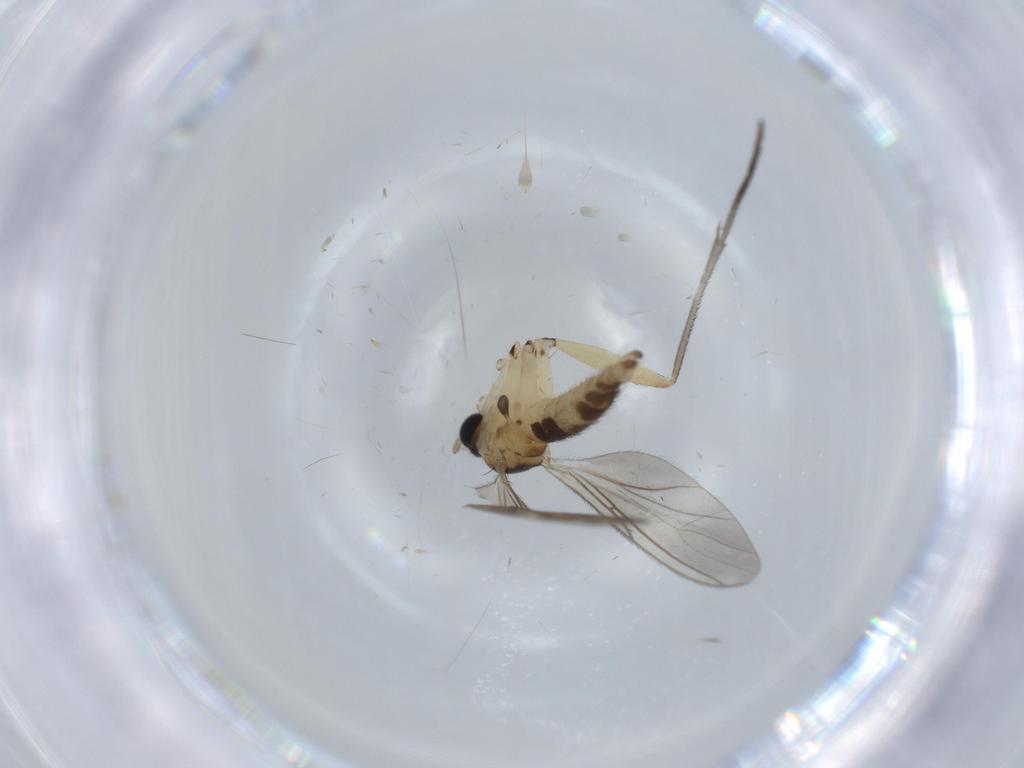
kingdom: Animalia
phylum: Arthropoda
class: Insecta
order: Diptera
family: Sciaridae
